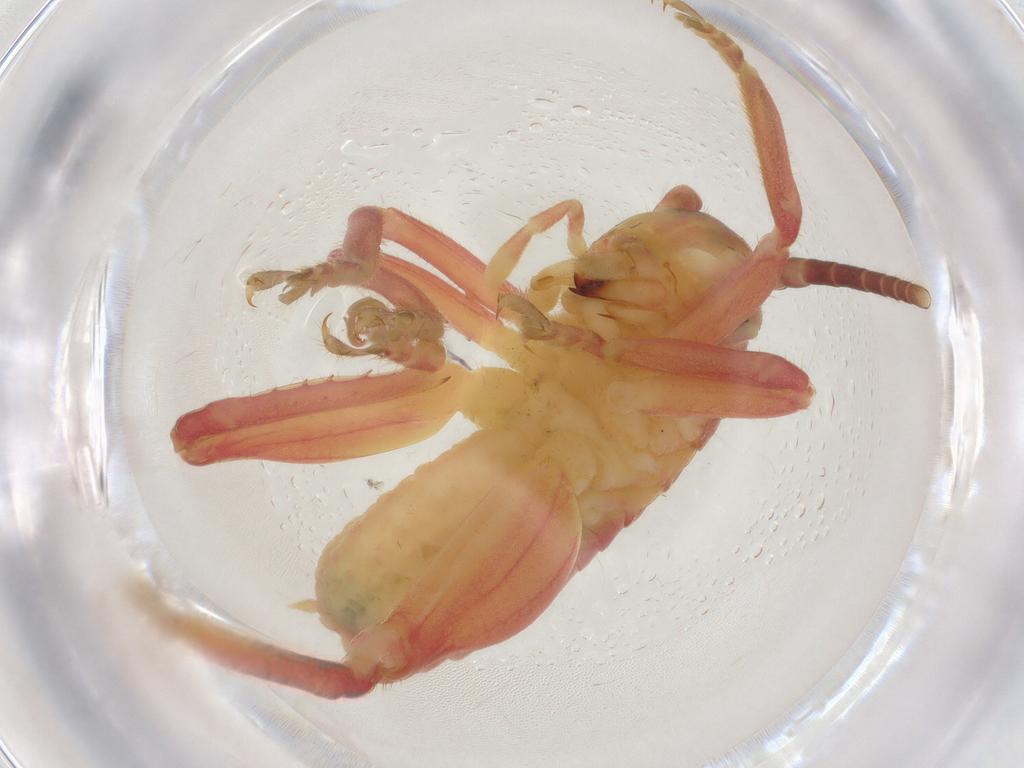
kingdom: Animalia
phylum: Arthropoda
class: Insecta
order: Orthoptera
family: Gryllacrididae
